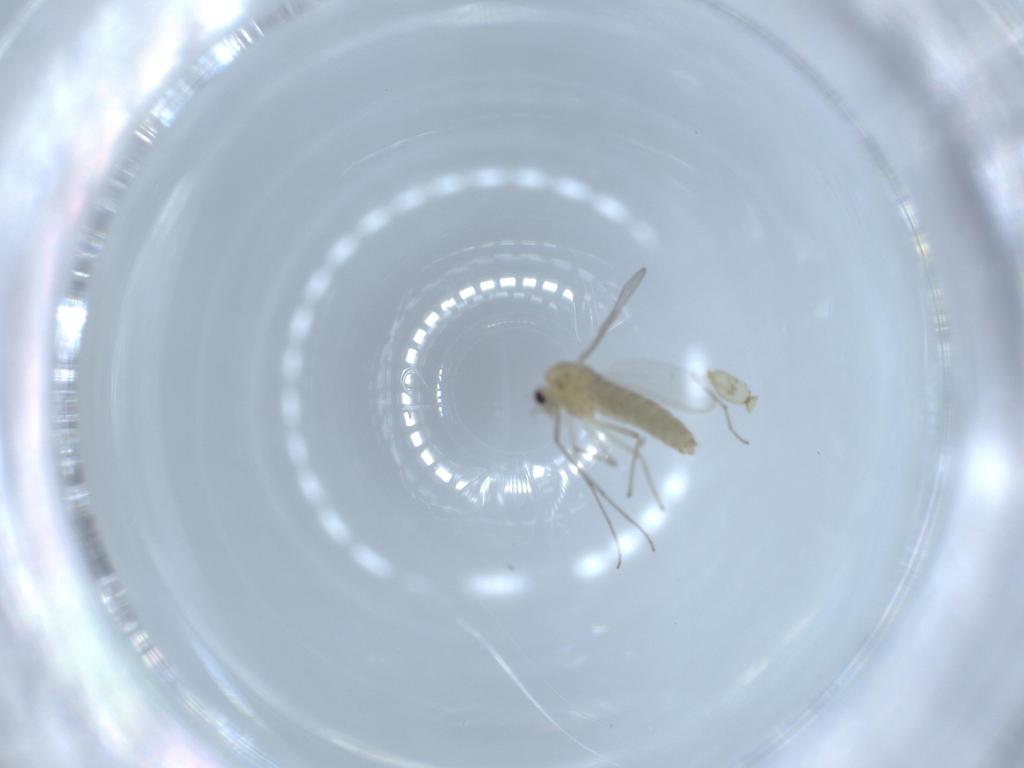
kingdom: Animalia
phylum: Arthropoda
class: Insecta
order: Diptera
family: Chironomidae
